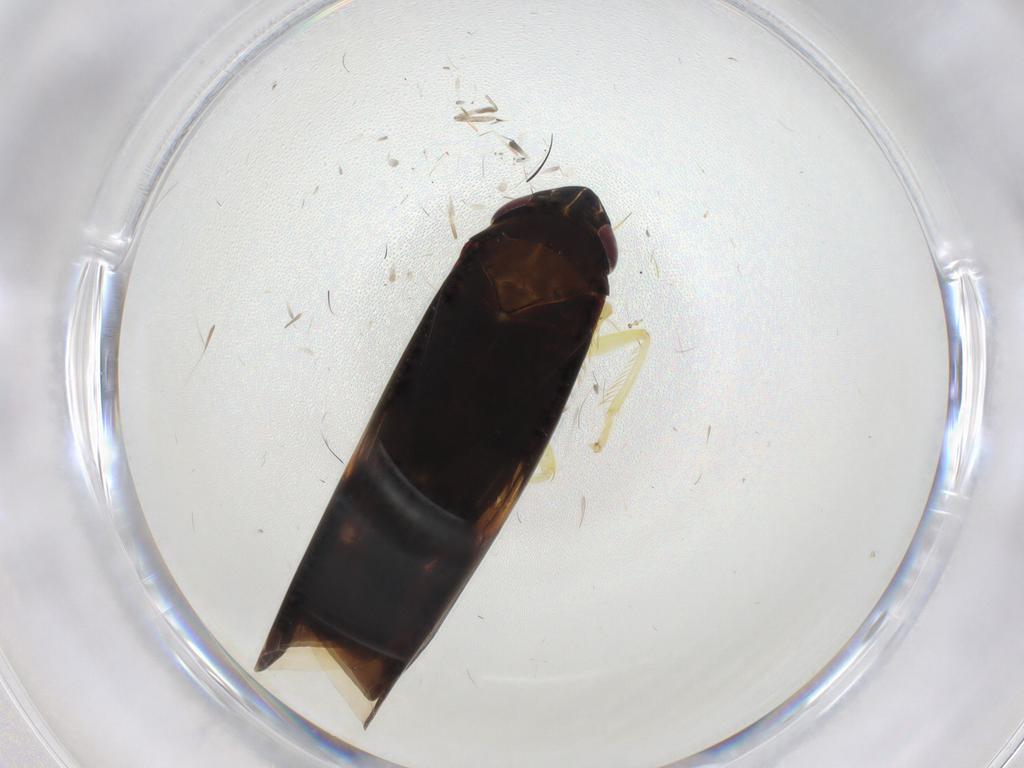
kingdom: Animalia
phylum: Arthropoda
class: Insecta
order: Hemiptera
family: Cicadellidae
